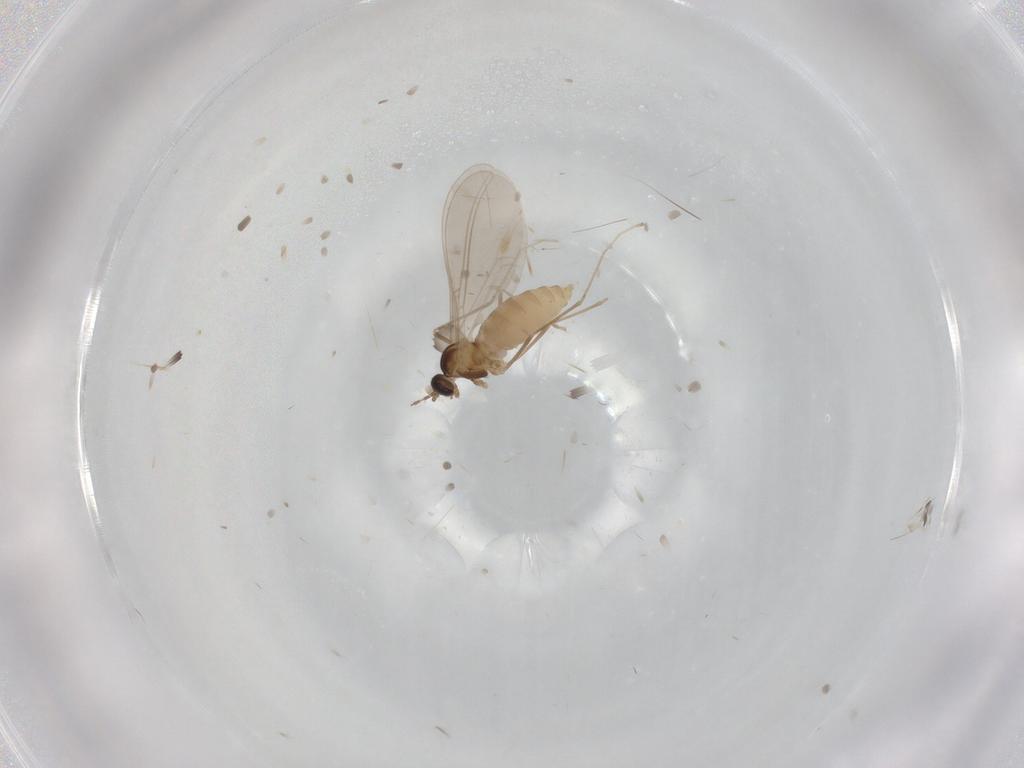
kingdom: Animalia
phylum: Arthropoda
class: Insecta
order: Diptera
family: Cecidomyiidae
